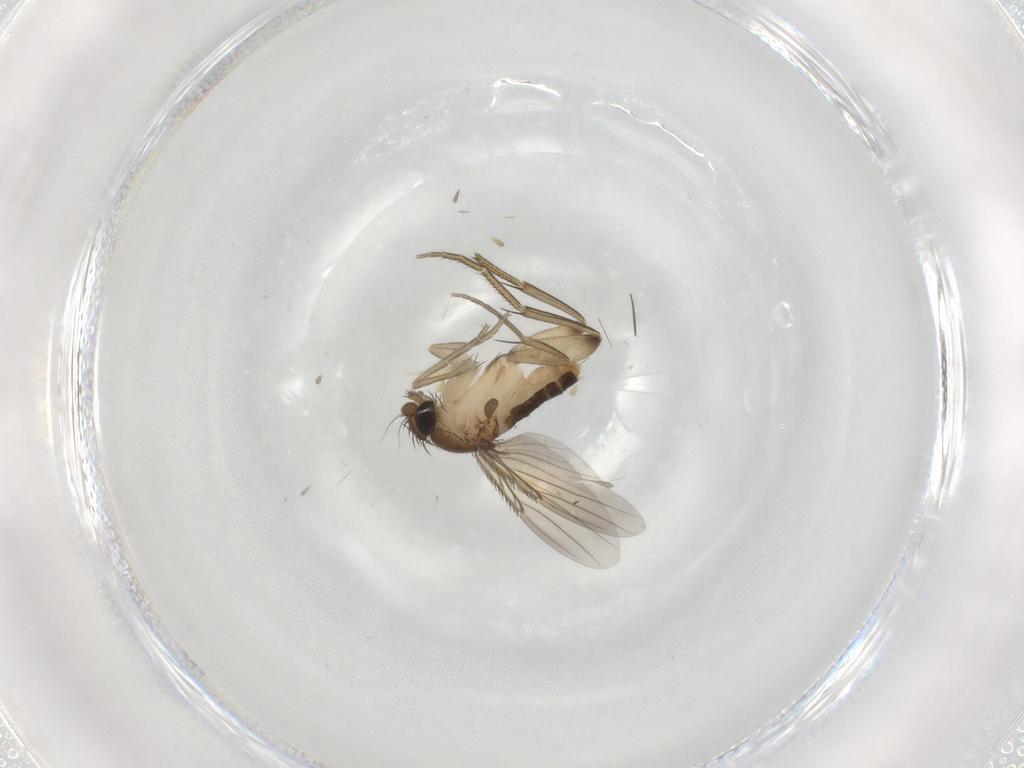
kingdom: Animalia
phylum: Arthropoda
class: Insecta
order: Diptera
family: Phoridae
